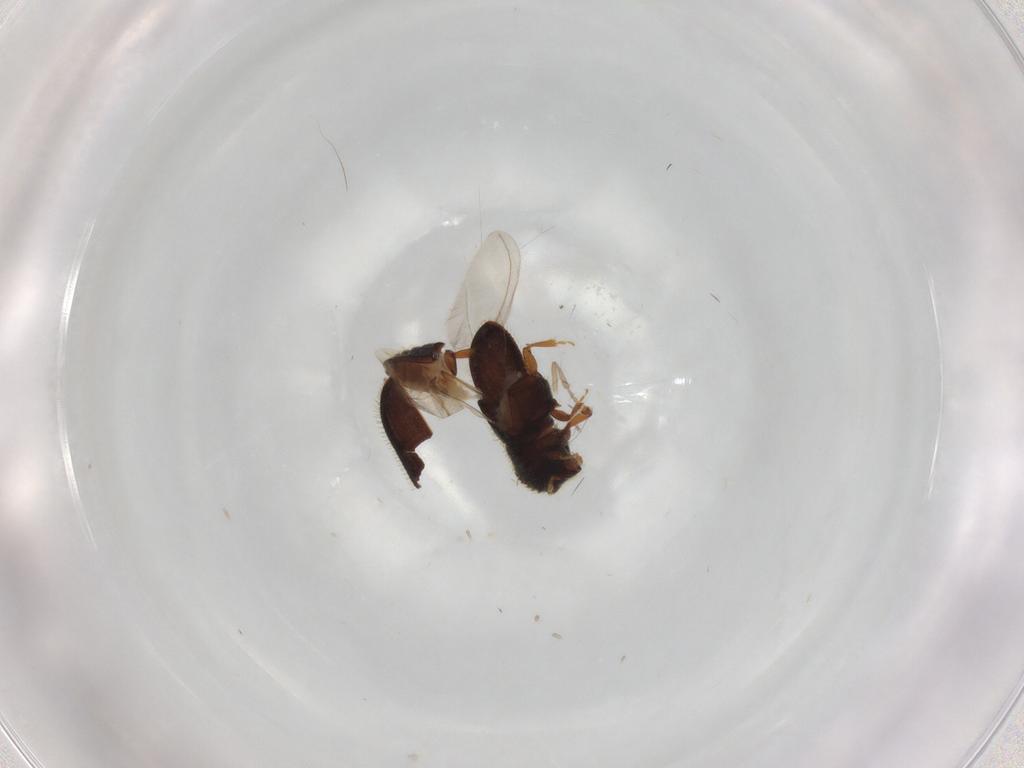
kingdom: Animalia
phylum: Arthropoda
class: Insecta
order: Coleoptera
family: Curculionidae
